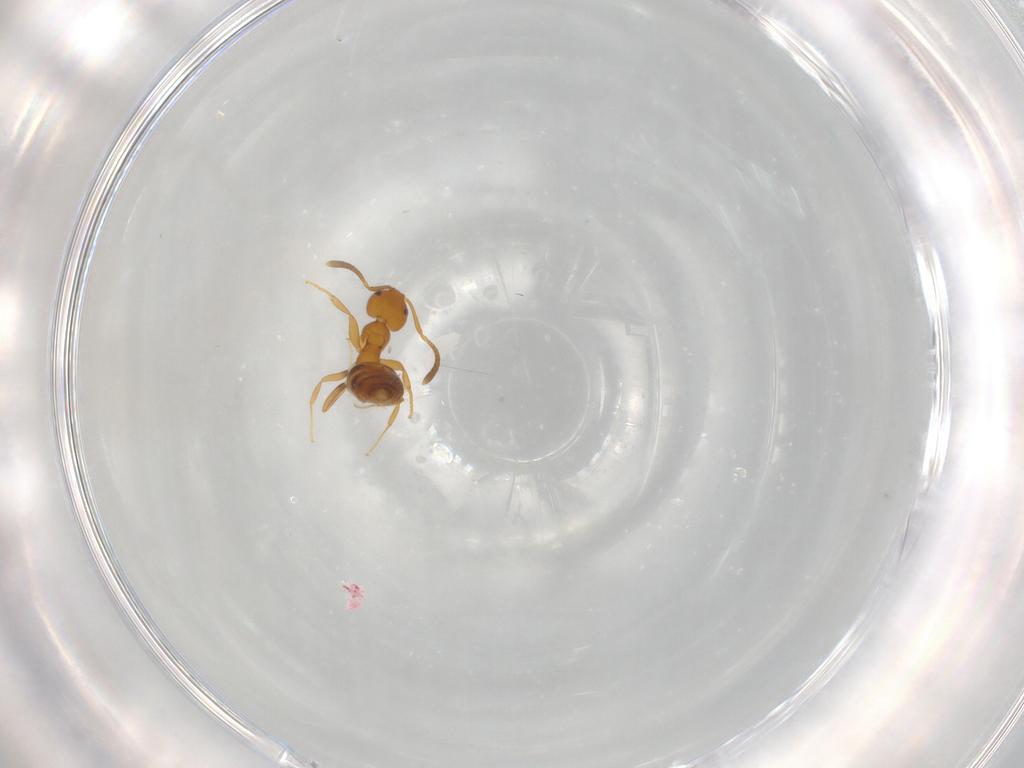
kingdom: Animalia
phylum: Arthropoda
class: Insecta
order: Hymenoptera
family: Formicidae
